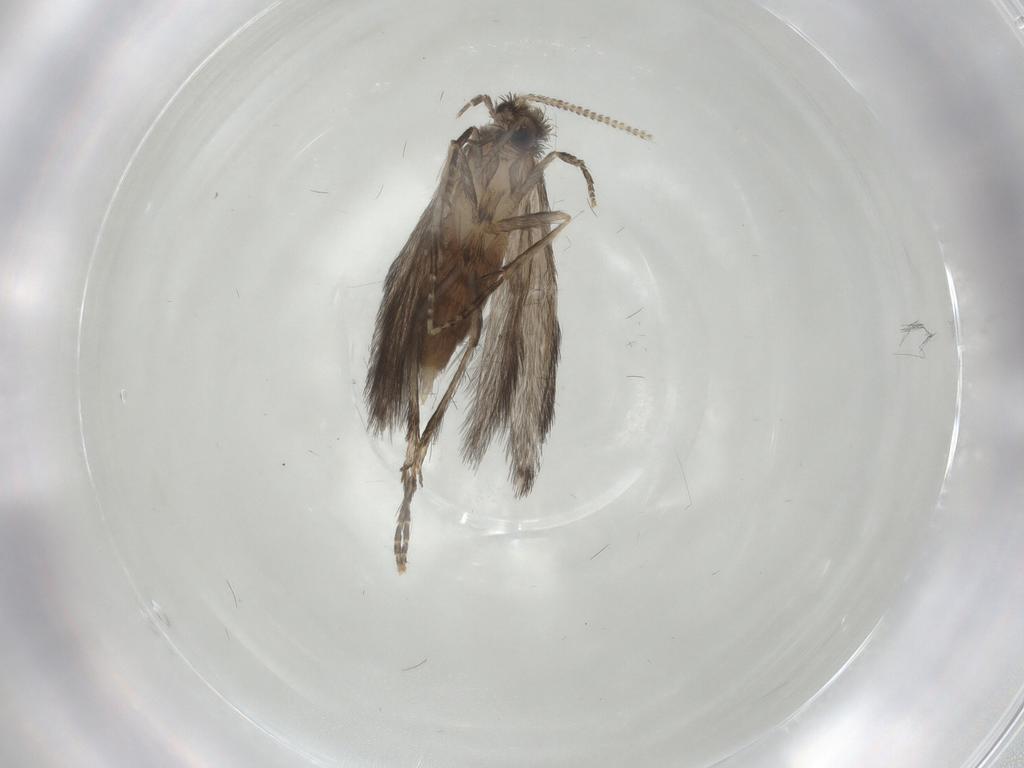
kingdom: Animalia
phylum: Arthropoda
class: Insecta
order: Trichoptera
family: Hydroptilidae
